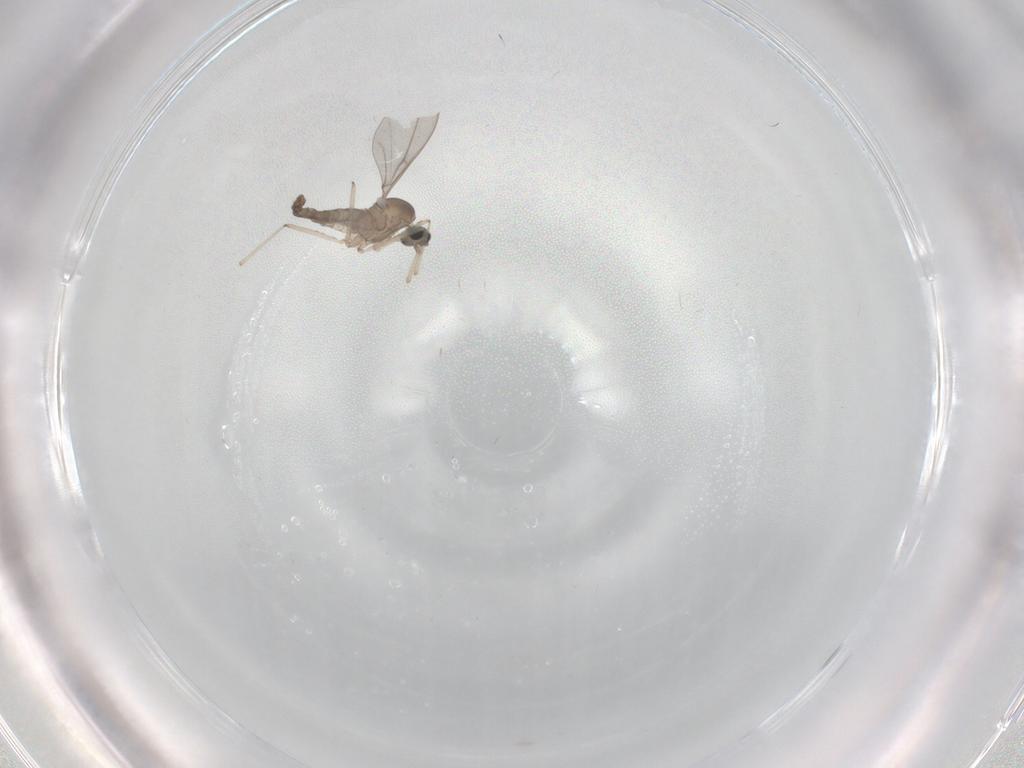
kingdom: Animalia
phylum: Arthropoda
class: Insecta
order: Diptera
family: Cecidomyiidae
